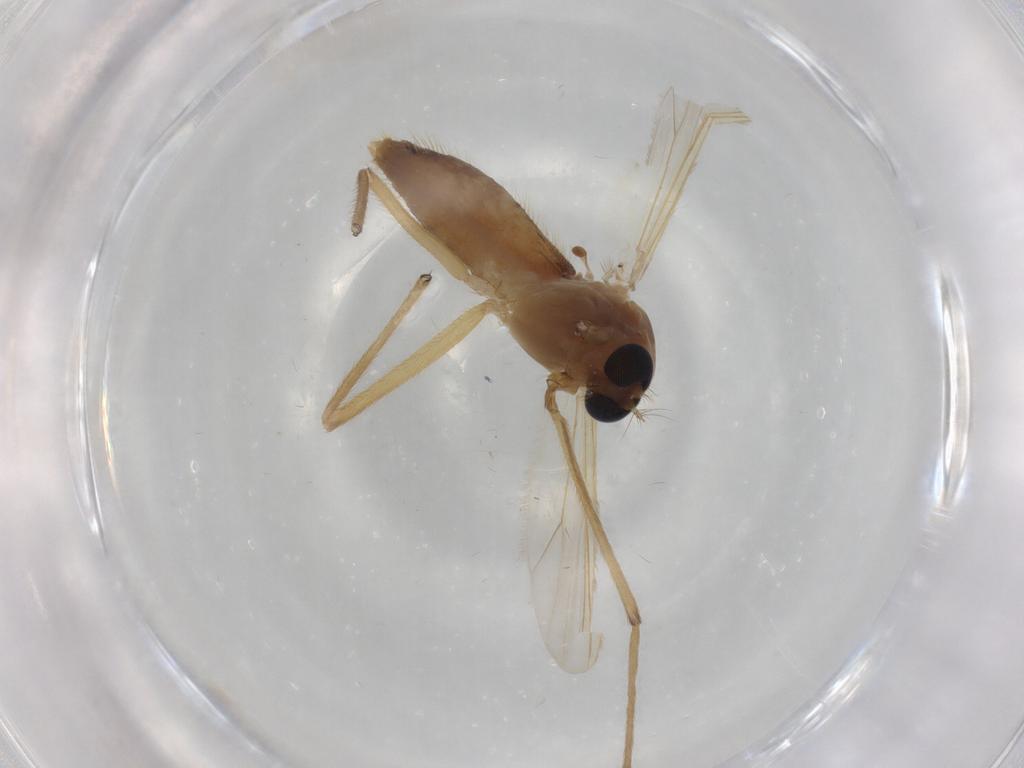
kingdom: Animalia
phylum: Arthropoda
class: Insecta
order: Diptera
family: Chironomidae
